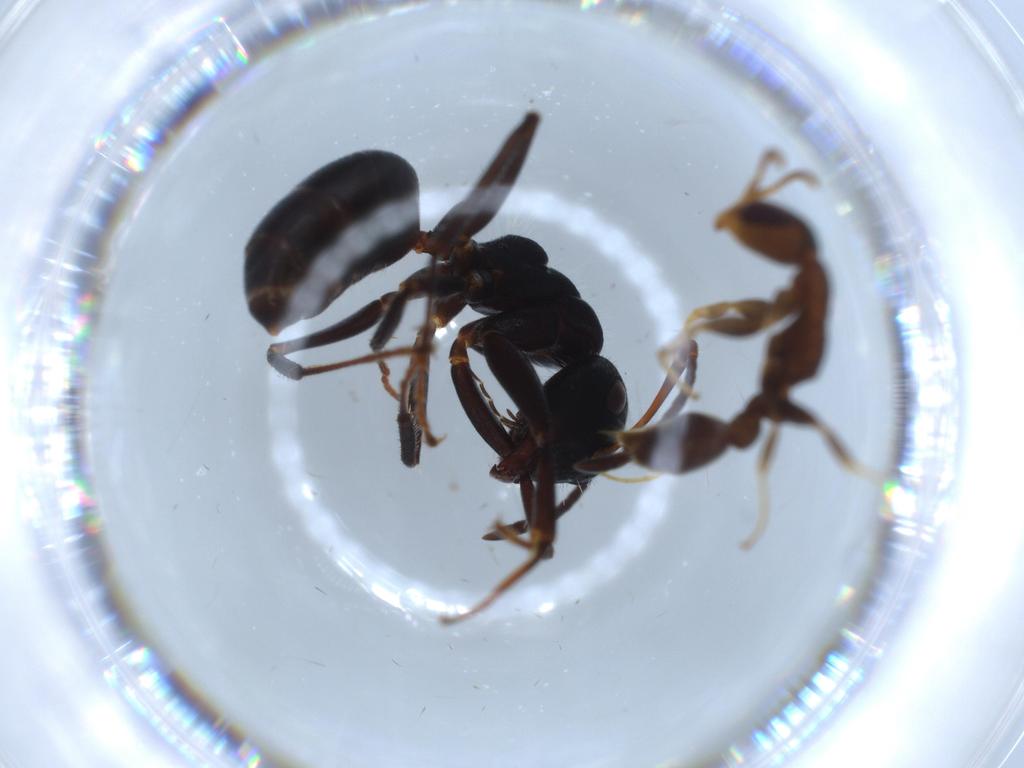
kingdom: Animalia
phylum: Arthropoda
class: Insecta
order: Hymenoptera
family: Formicidae
